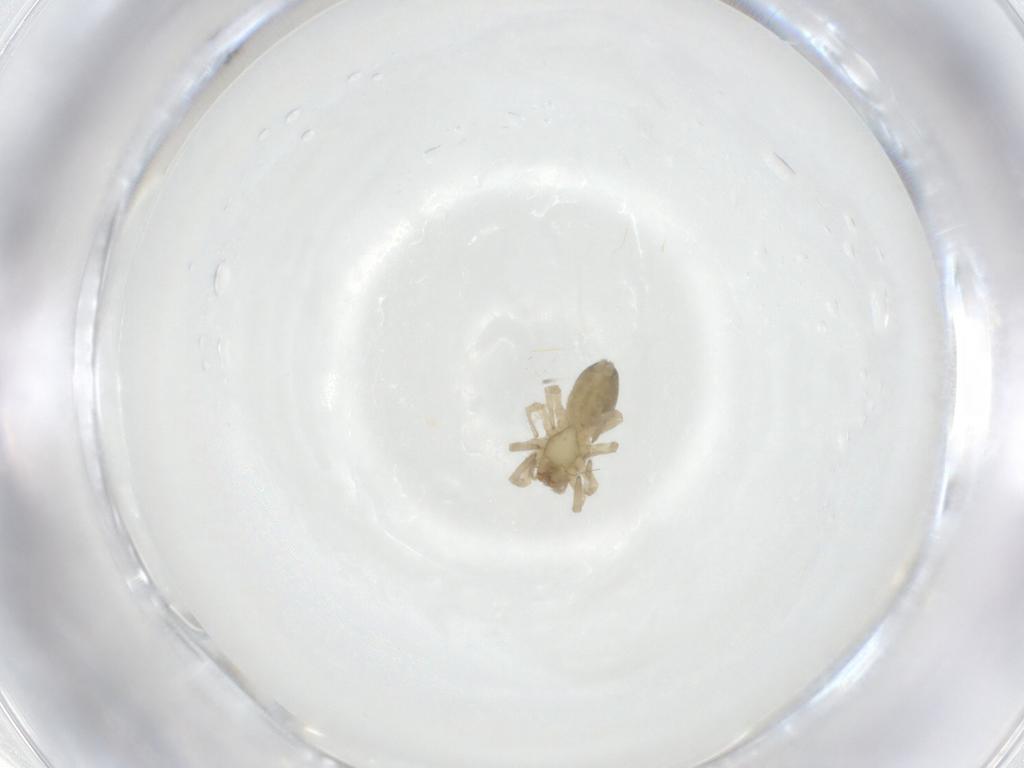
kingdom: Animalia
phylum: Arthropoda
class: Arachnida
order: Araneae
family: Trachelidae
